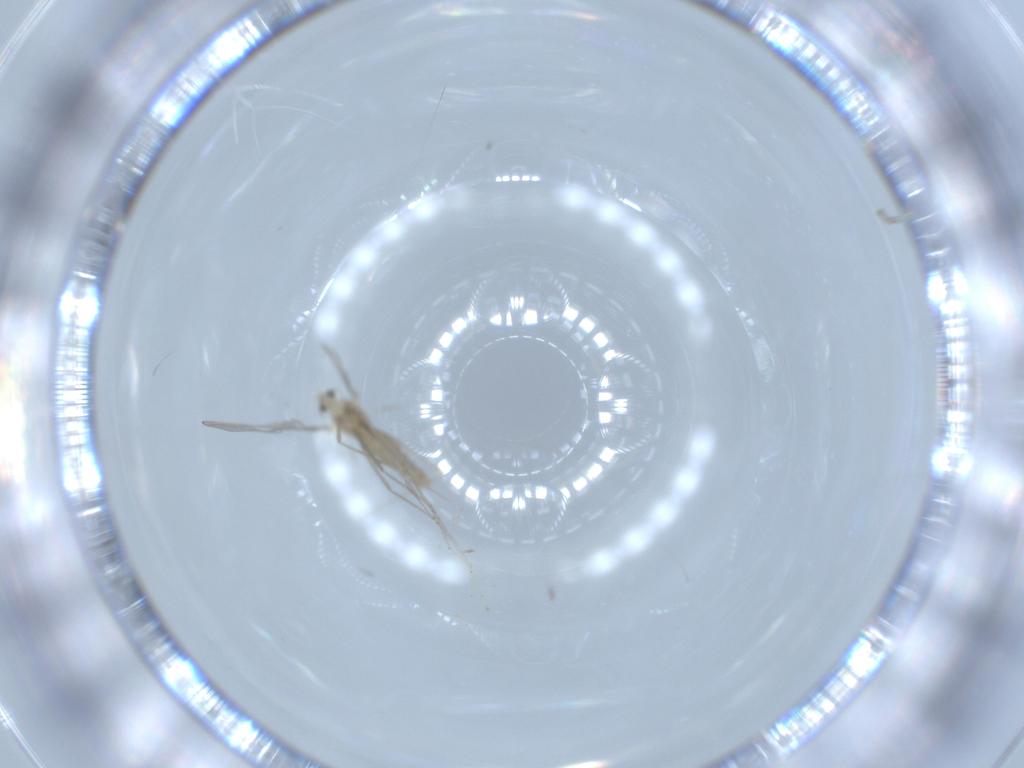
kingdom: Animalia
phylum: Arthropoda
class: Insecta
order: Diptera
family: Cecidomyiidae
